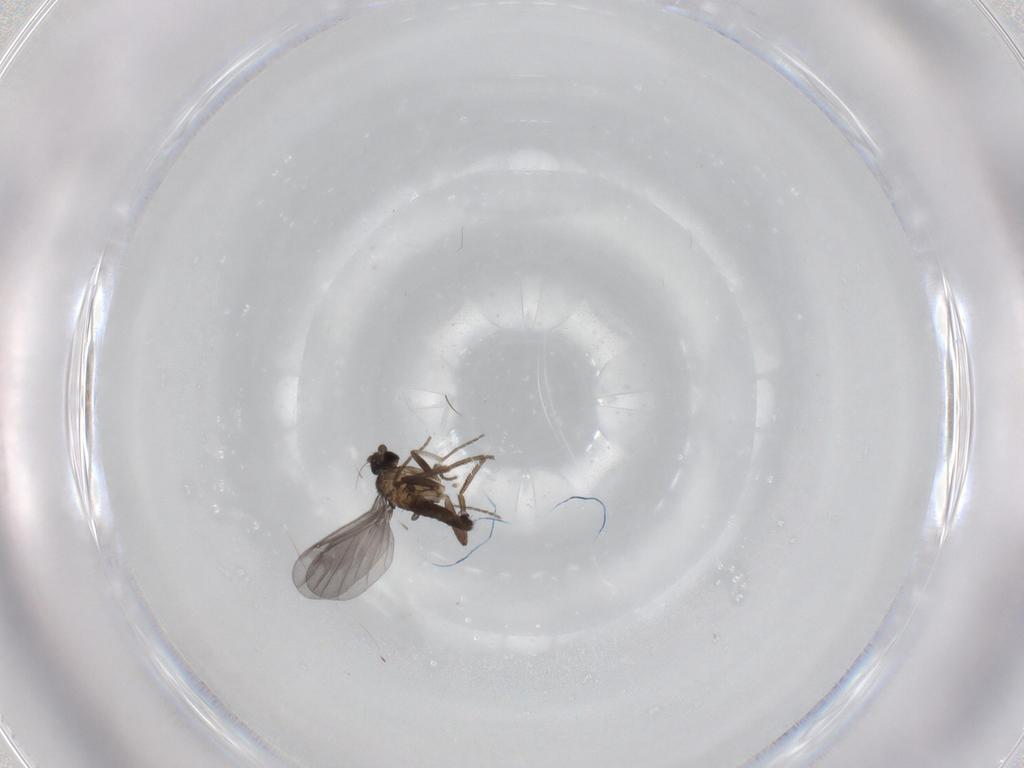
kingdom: Animalia
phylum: Arthropoda
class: Insecta
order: Diptera
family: Phoridae
